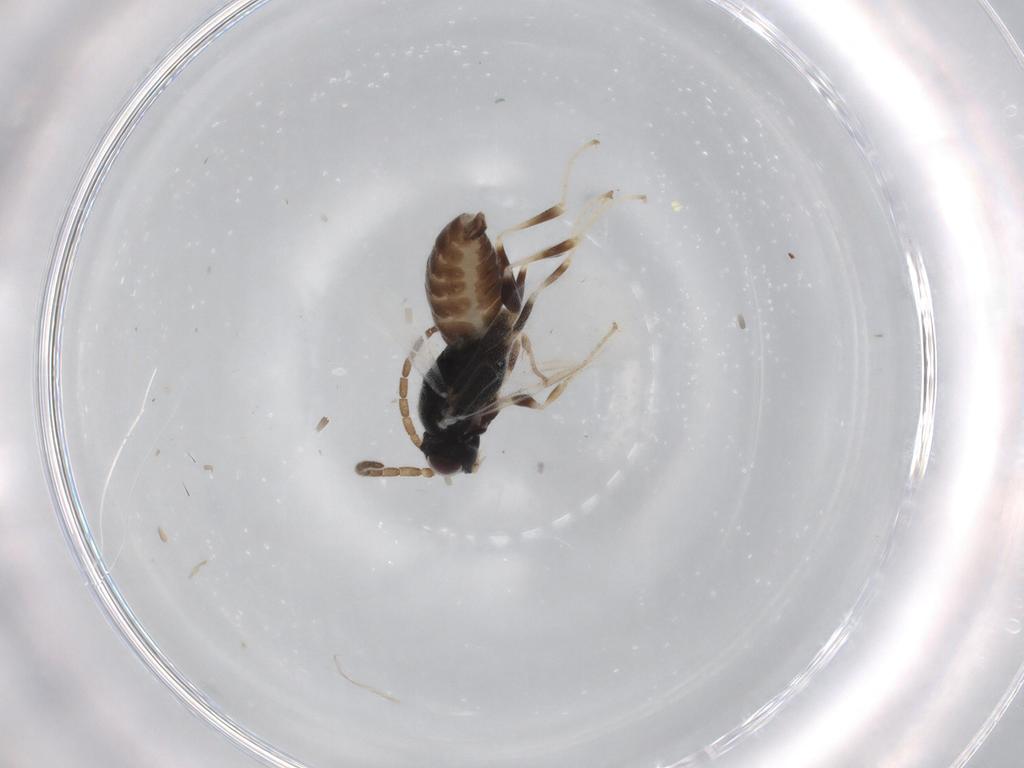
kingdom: Animalia
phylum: Arthropoda
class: Insecta
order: Hymenoptera
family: Dryinidae
